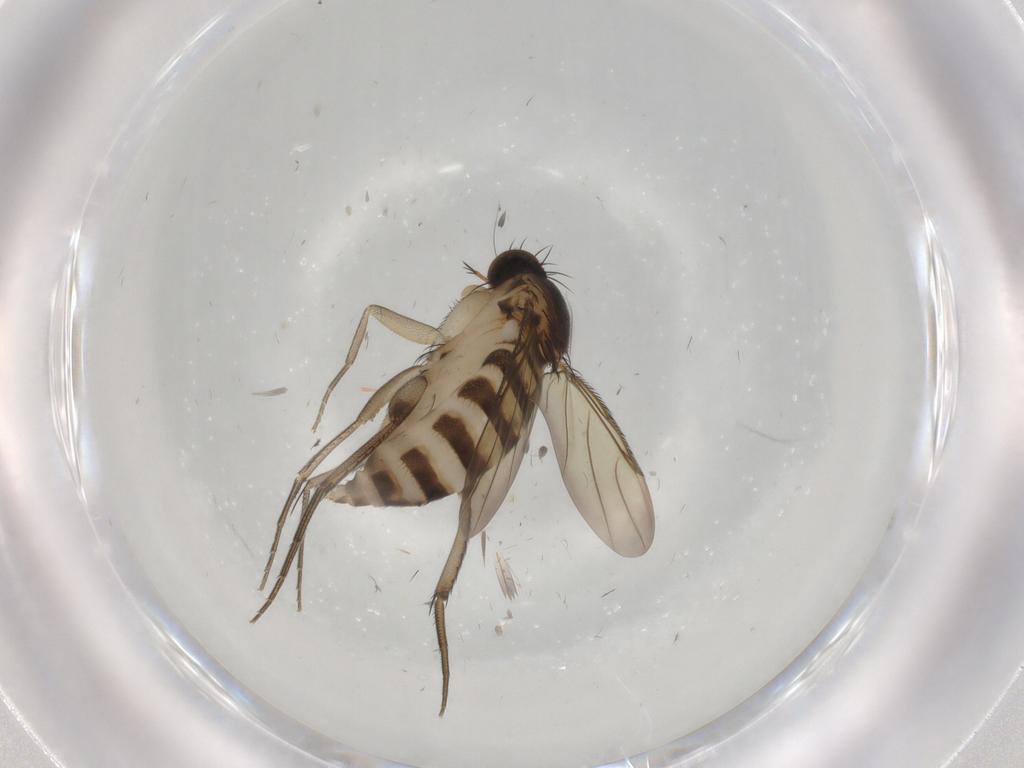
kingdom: Animalia
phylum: Arthropoda
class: Insecta
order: Diptera
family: Phoridae
